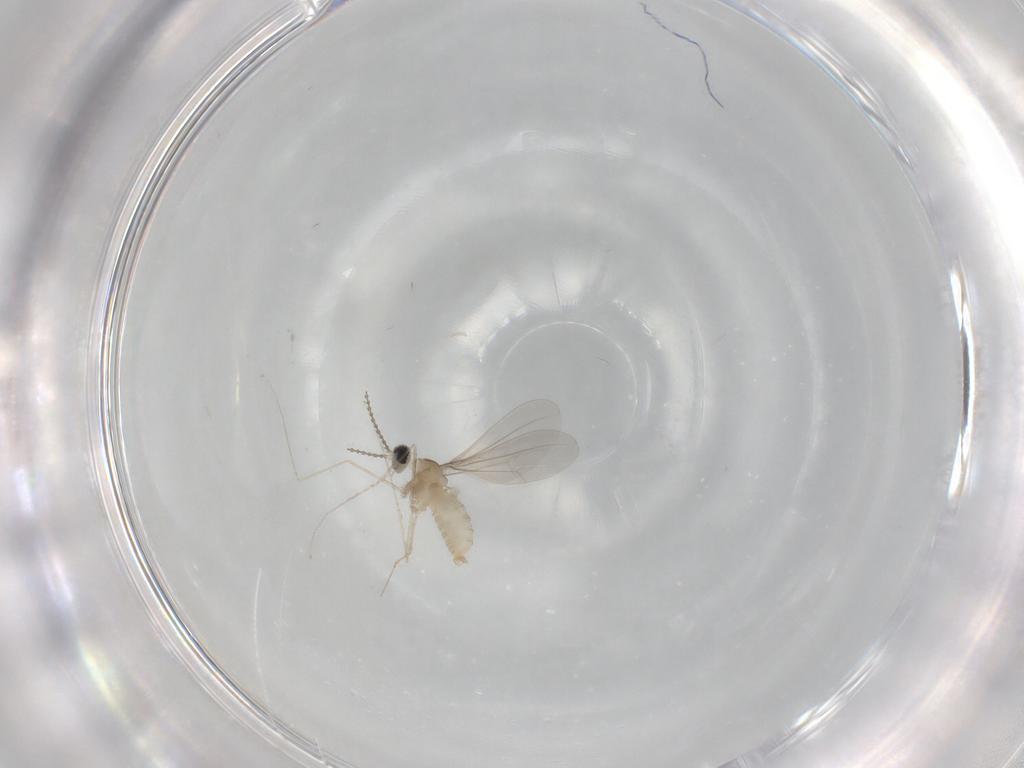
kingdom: Animalia
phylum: Arthropoda
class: Insecta
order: Diptera
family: Cecidomyiidae
